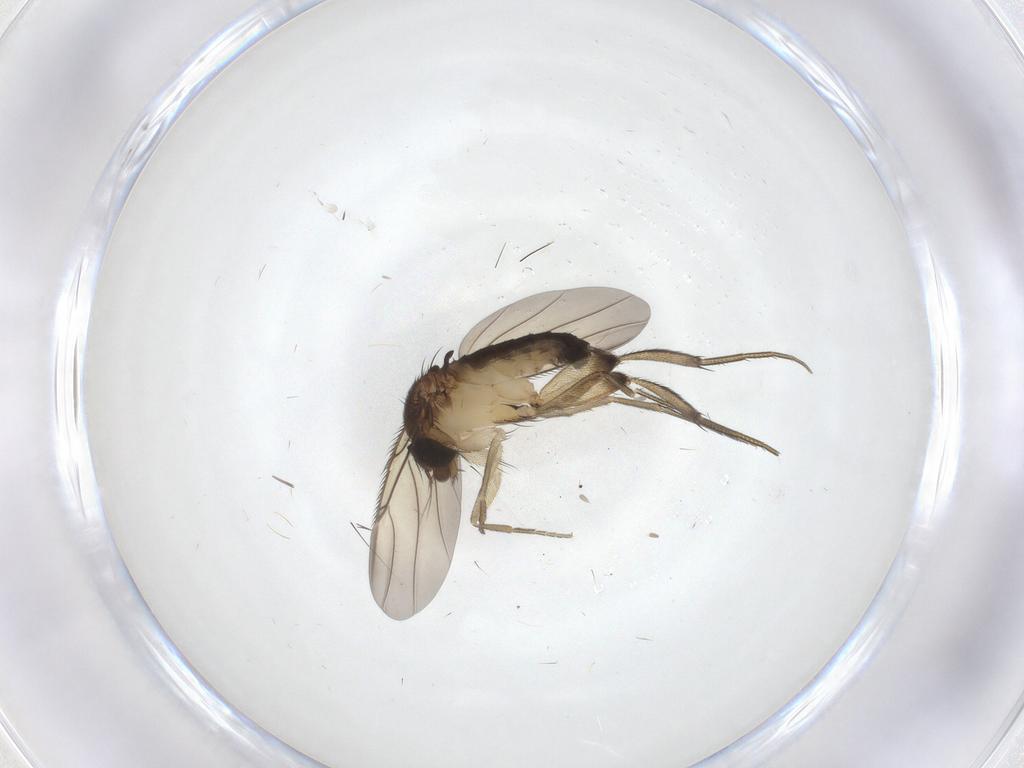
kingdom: Animalia
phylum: Arthropoda
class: Insecta
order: Diptera
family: Phoridae
